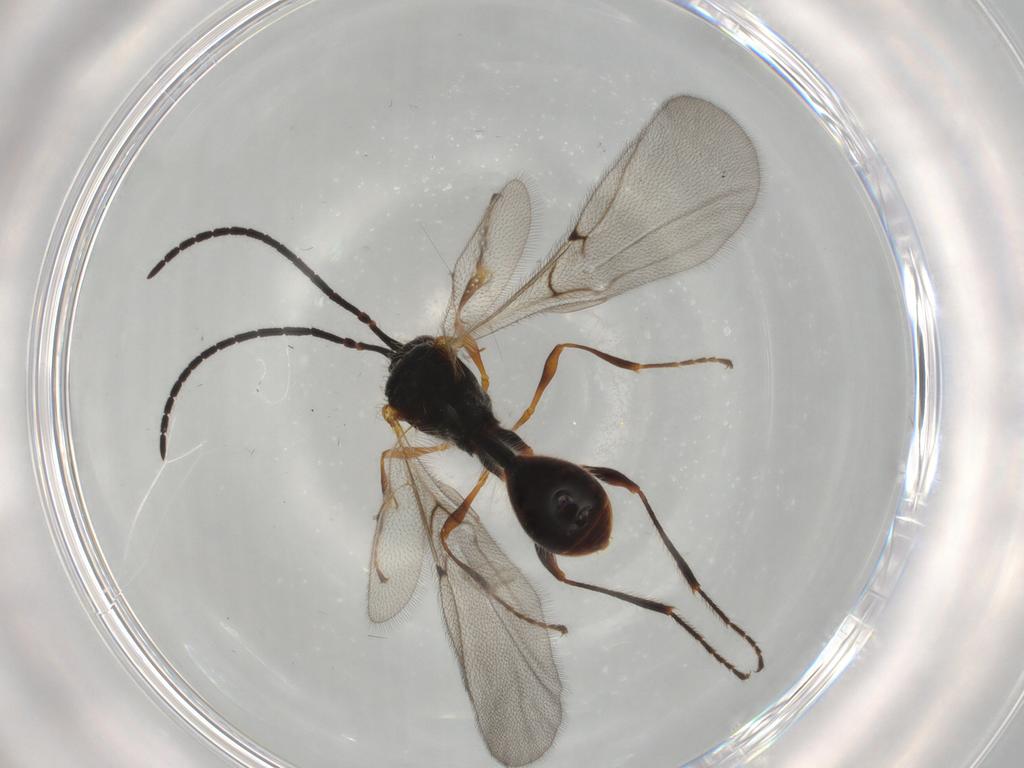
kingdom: Animalia
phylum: Arthropoda
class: Insecta
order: Hymenoptera
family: Diapriidae
